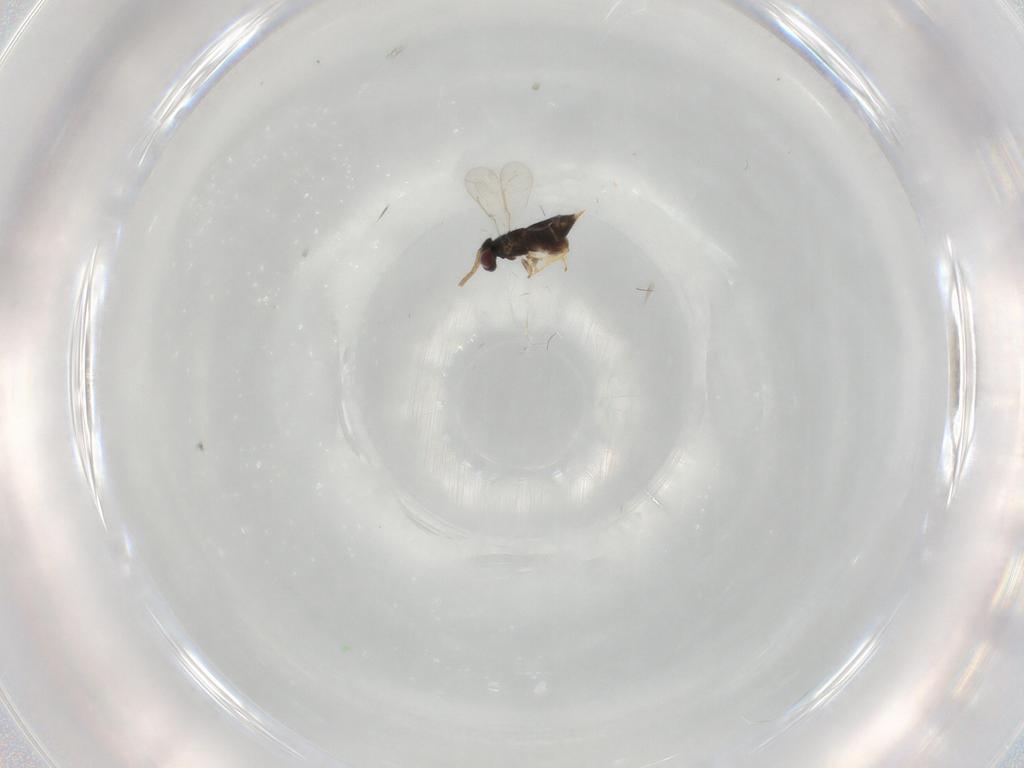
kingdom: Animalia
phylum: Arthropoda
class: Insecta
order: Hymenoptera
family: Aphelinidae
